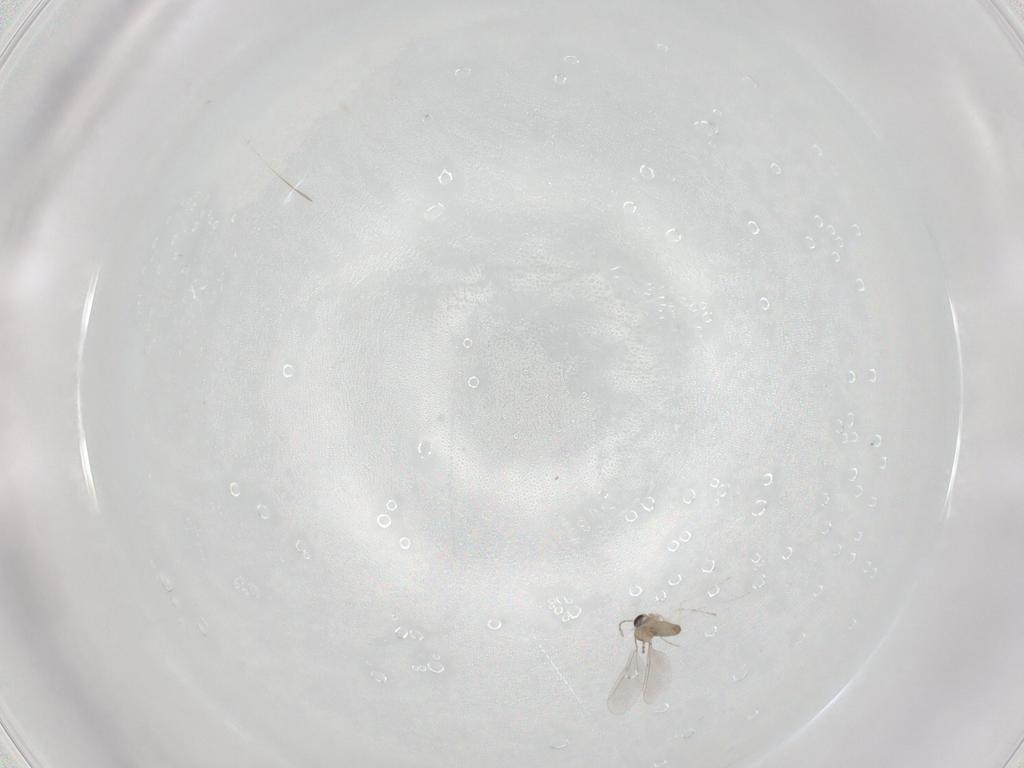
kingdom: Animalia
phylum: Arthropoda
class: Insecta
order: Diptera
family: Cecidomyiidae
